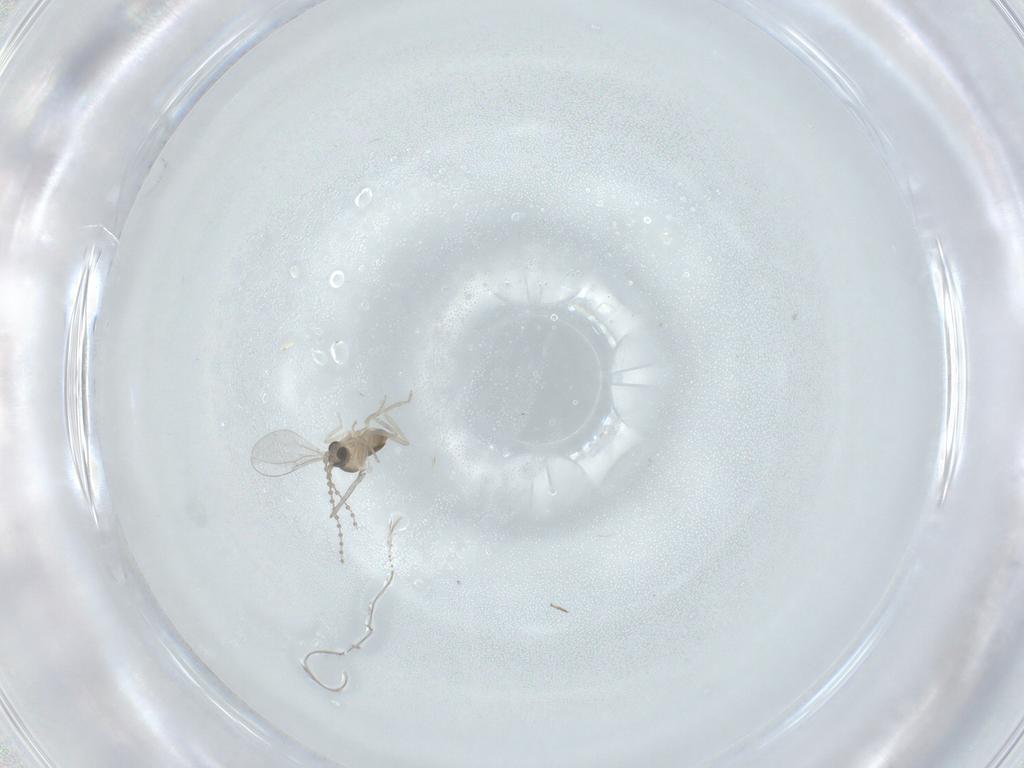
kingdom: Animalia
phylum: Arthropoda
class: Insecta
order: Diptera
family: Cecidomyiidae
